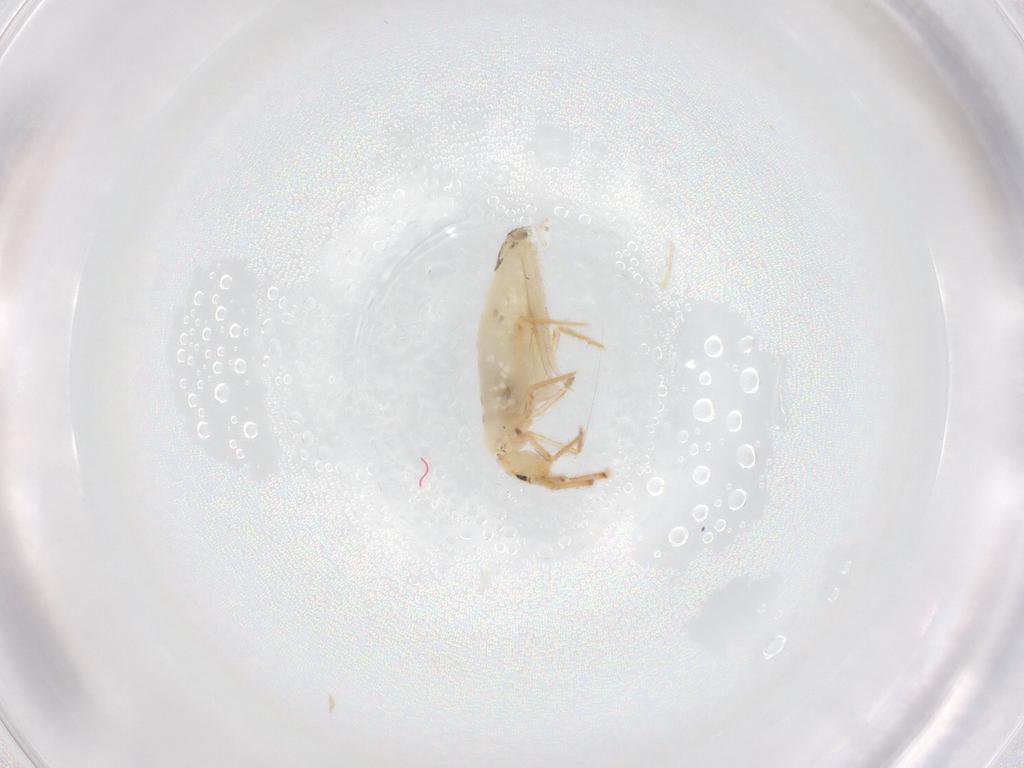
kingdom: Animalia
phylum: Arthropoda
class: Collembola
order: Entomobryomorpha
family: Entomobryidae
